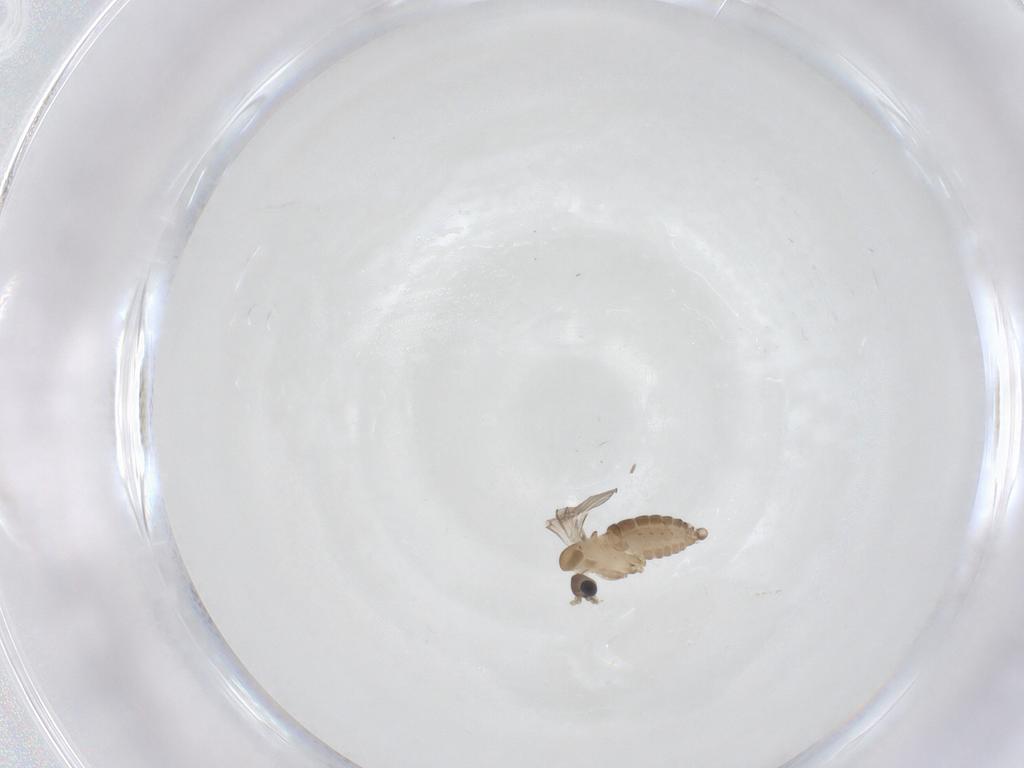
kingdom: Animalia
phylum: Arthropoda
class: Insecta
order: Diptera
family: Psychodidae
